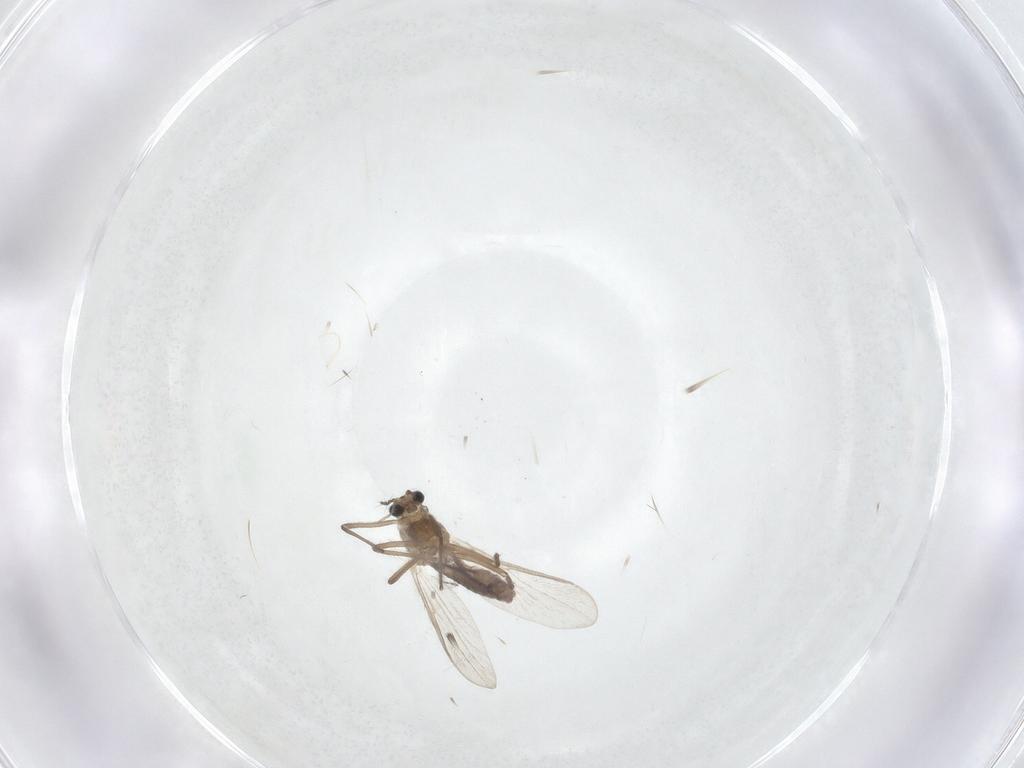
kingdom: Animalia
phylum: Arthropoda
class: Insecta
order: Diptera
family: Chironomidae
